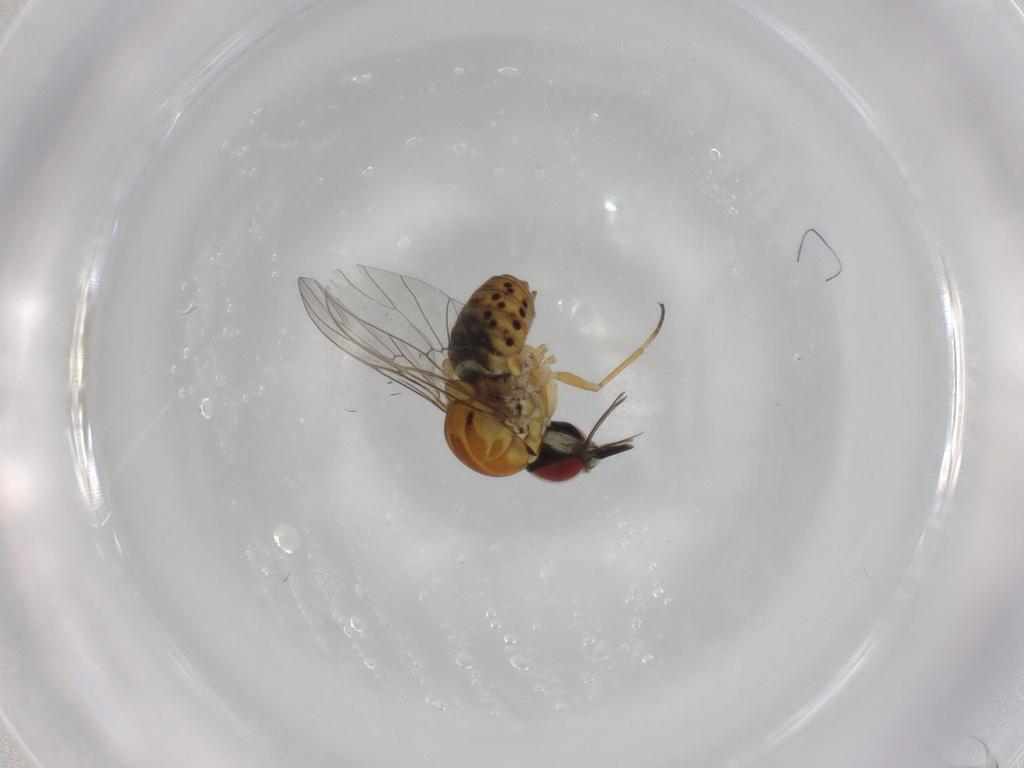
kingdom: Animalia
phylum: Arthropoda
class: Insecta
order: Diptera
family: Bombyliidae
